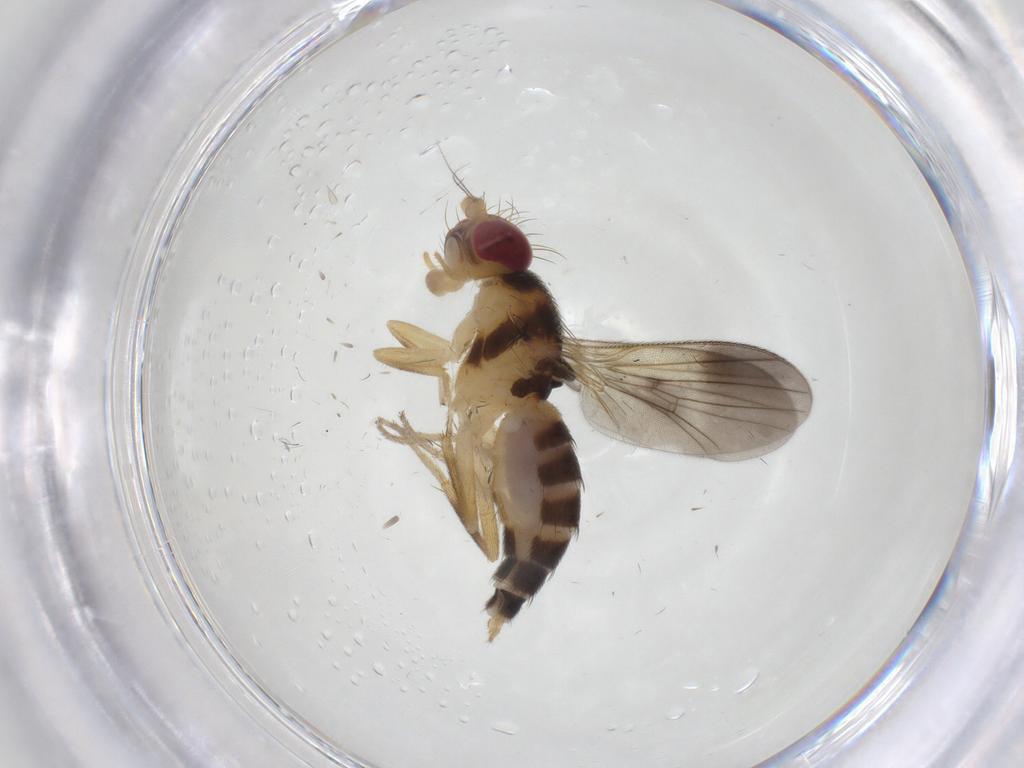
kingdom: Animalia
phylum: Arthropoda
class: Insecta
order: Diptera
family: Clusiidae
